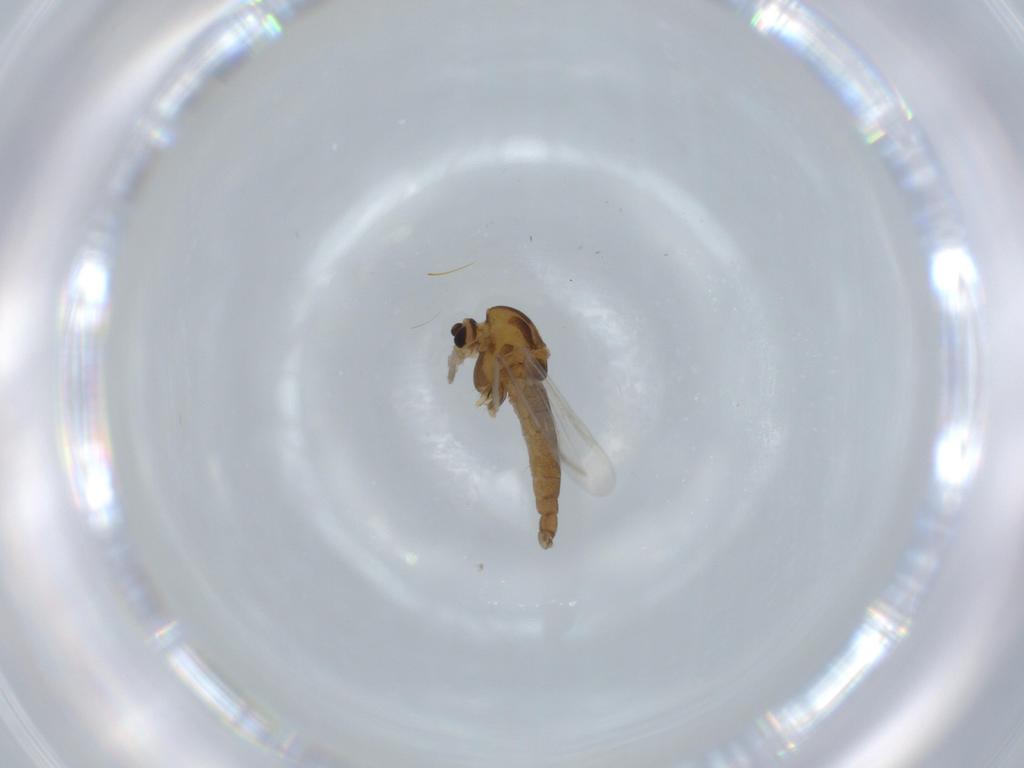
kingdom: Animalia
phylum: Arthropoda
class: Insecta
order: Diptera
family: Chironomidae
